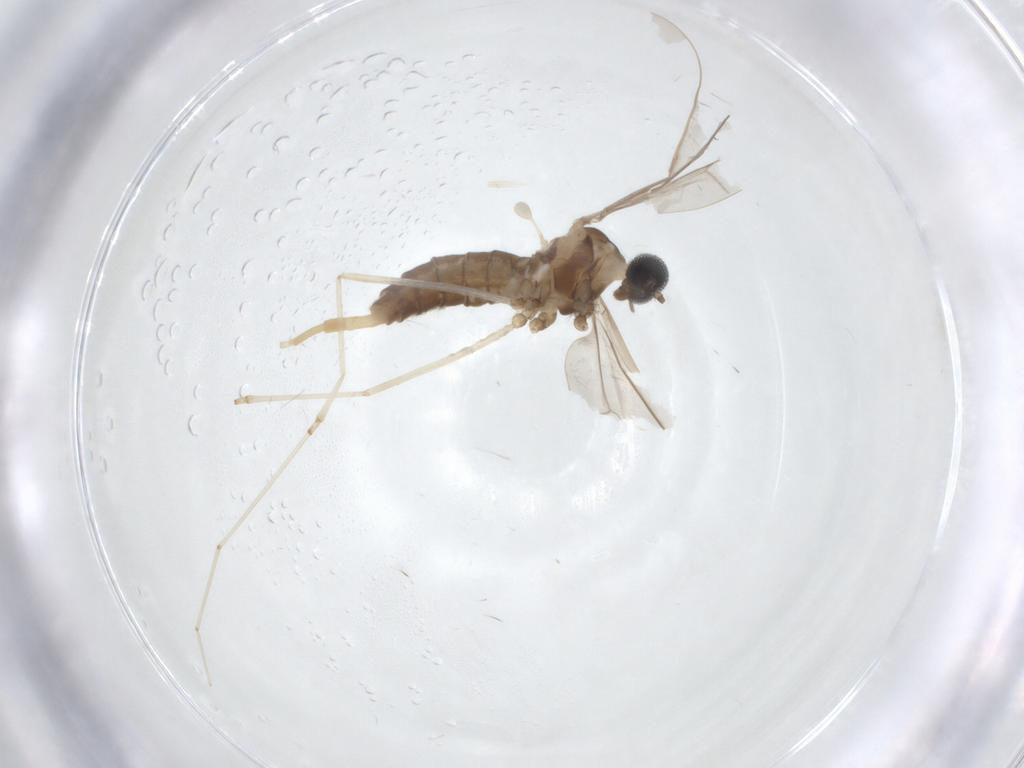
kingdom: Animalia
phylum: Arthropoda
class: Insecta
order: Diptera
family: Cecidomyiidae
